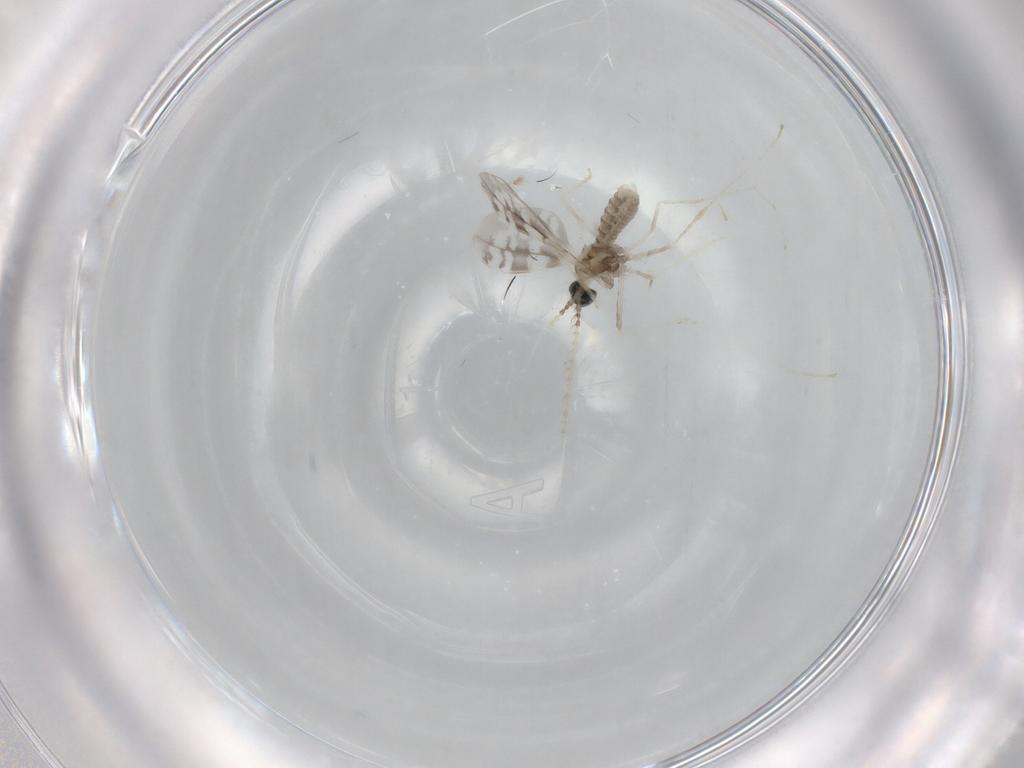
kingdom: Animalia
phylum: Arthropoda
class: Insecta
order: Diptera
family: Cecidomyiidae
